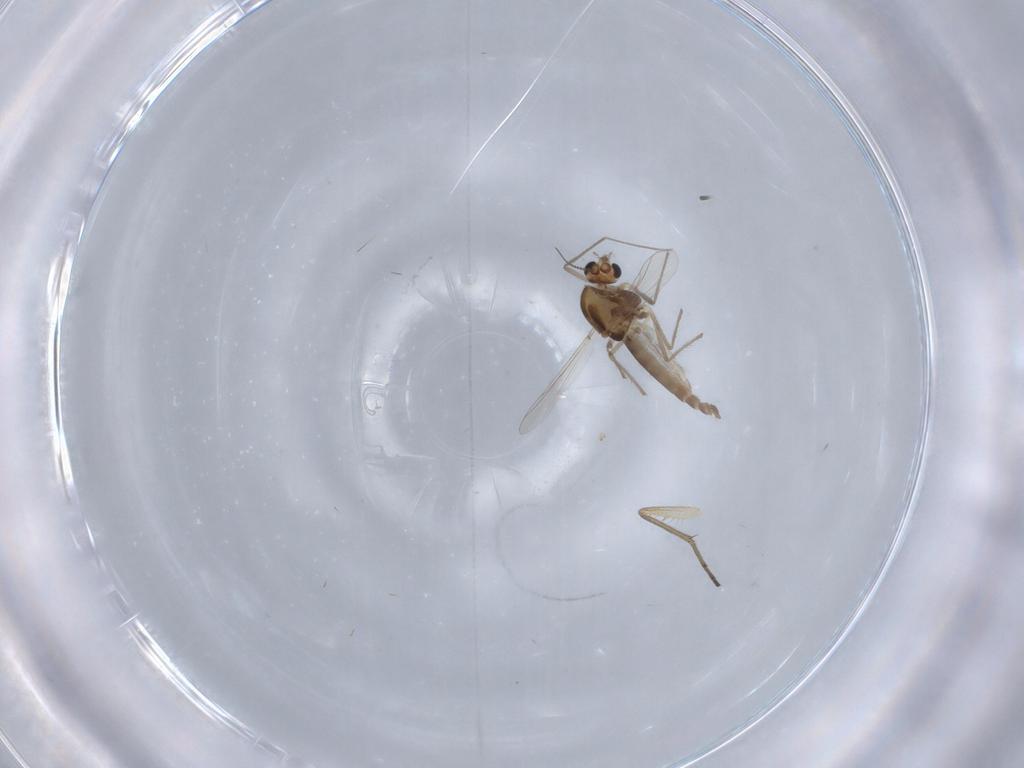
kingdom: Animalia
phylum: Arthropoda
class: Insecta
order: Diptera
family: Chironomidae
